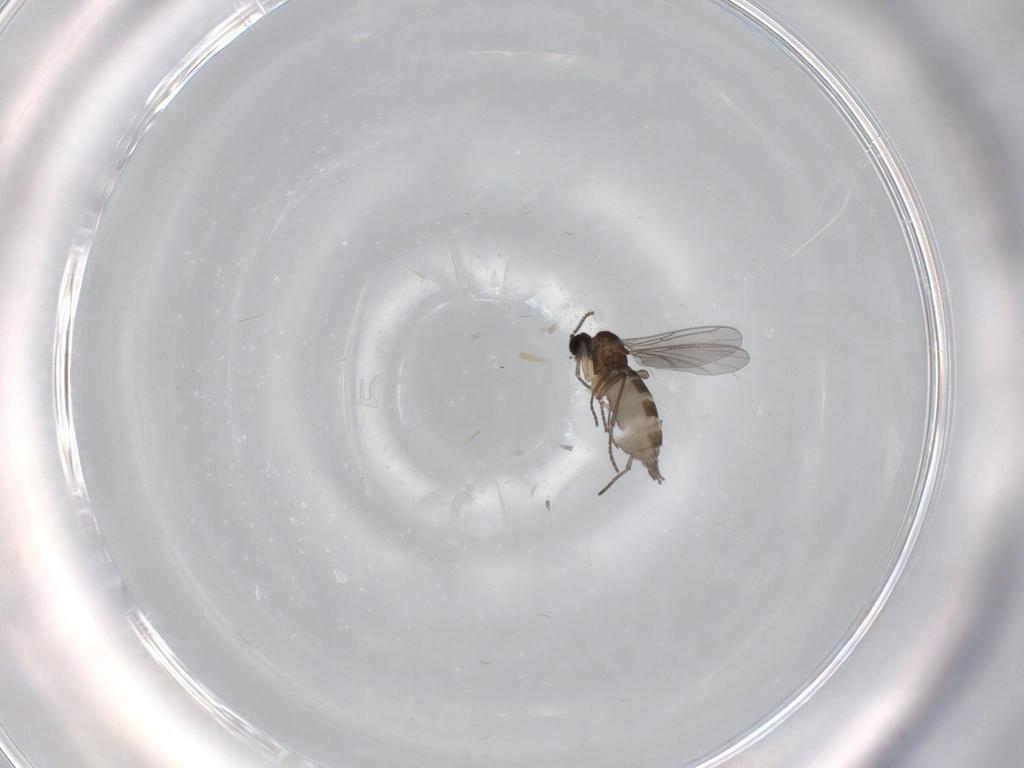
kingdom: Animalia
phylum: Arthropoda
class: Insecta
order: Diptera
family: Sciaridae
